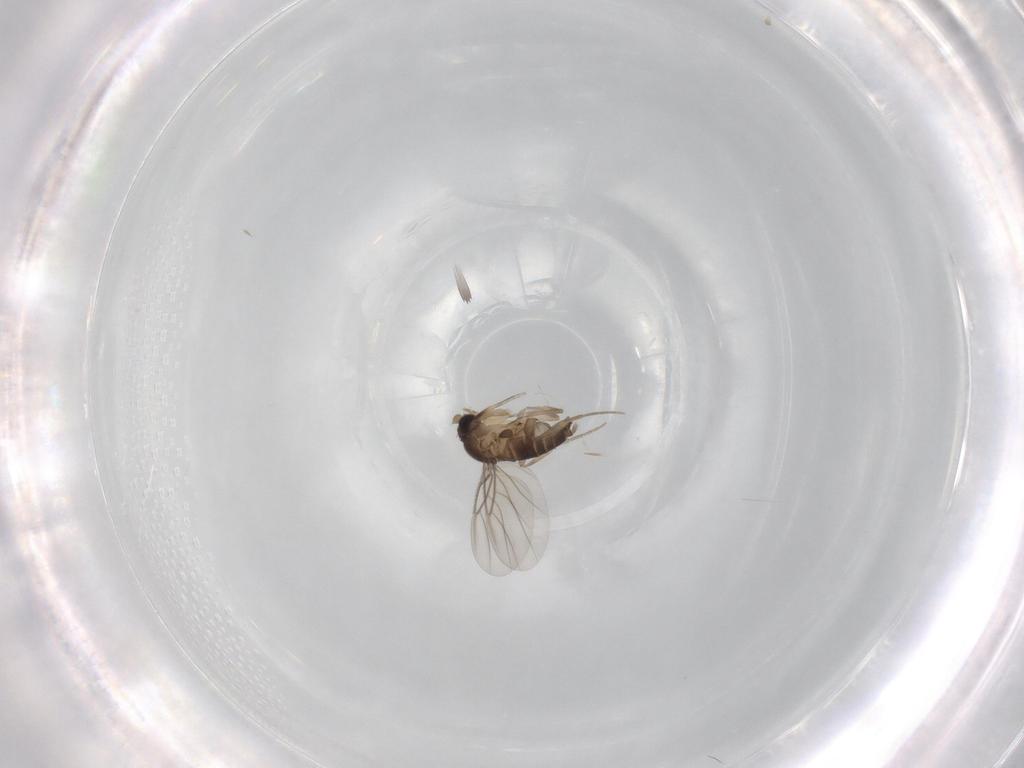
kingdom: Animalia
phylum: Arthropoda
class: Insecta
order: Diptera
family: Phoridae
